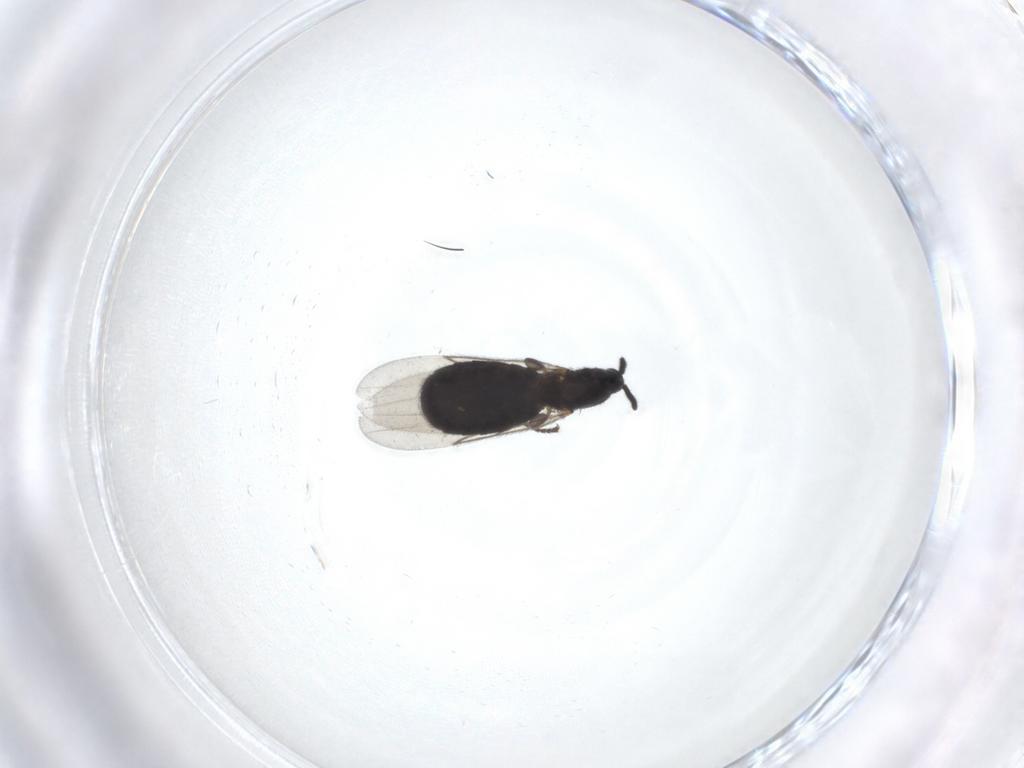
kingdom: Animalia
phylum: Arthropoda
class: Insecta
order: Diptera
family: Scatopsidae
